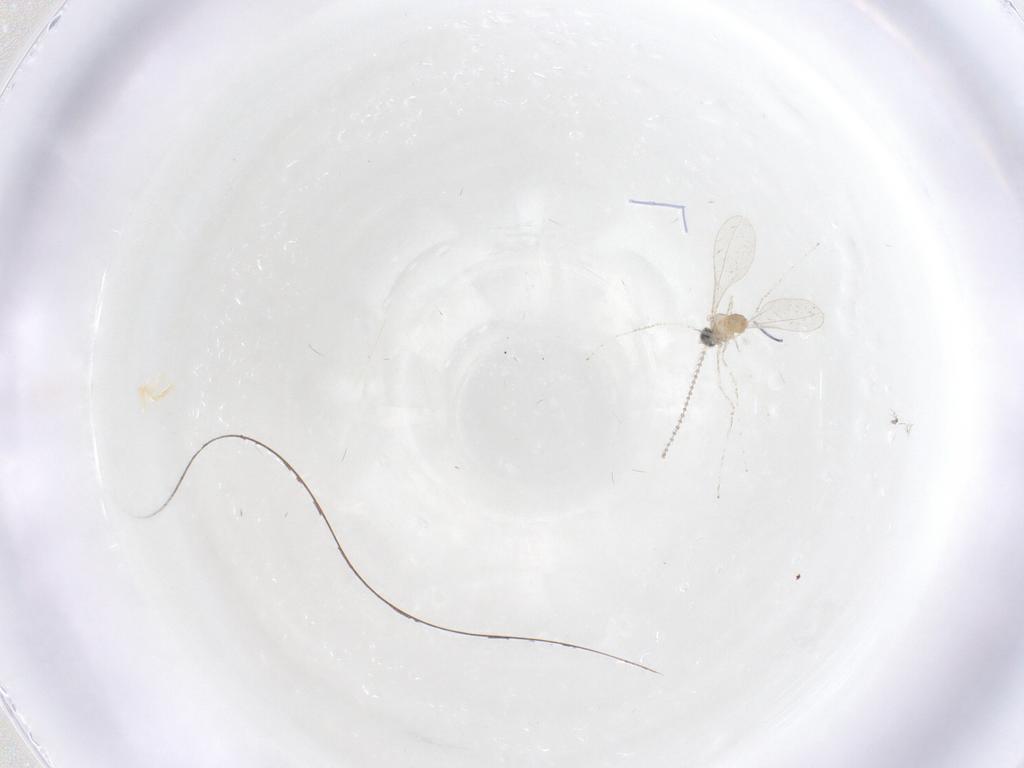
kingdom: Animalia
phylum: Arthropoda
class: Insecta
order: Diptera
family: Cecidomyiidae
